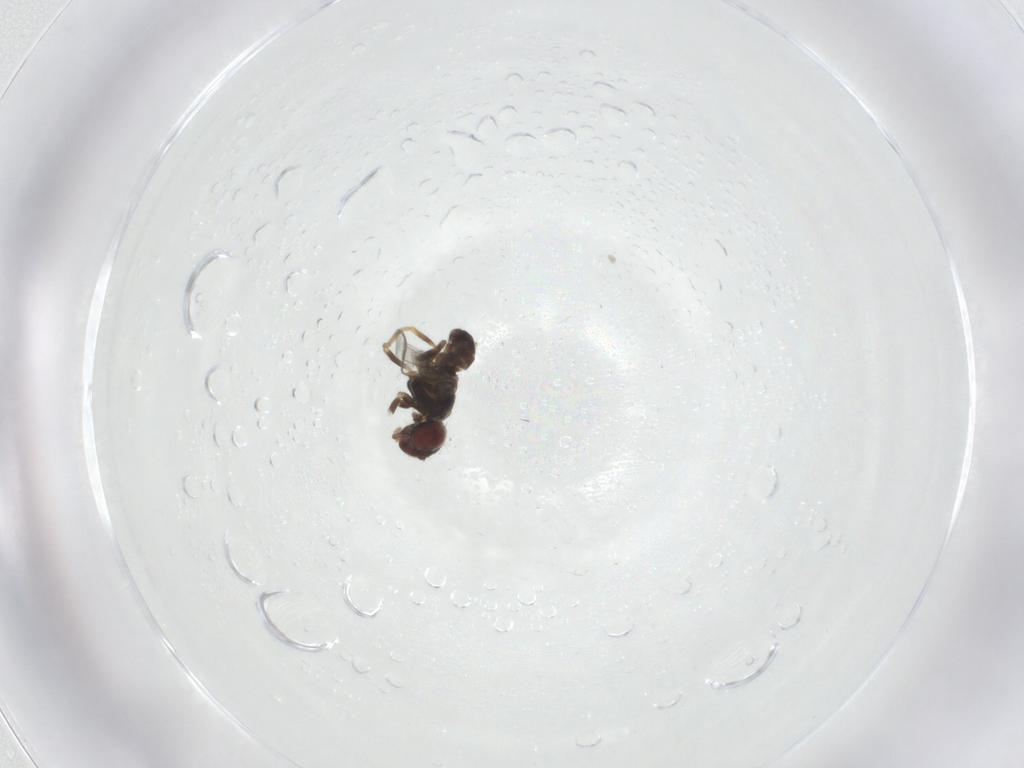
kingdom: Animalia
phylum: Arthropoda
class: Insecta
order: Diptera
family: Chloropidae
